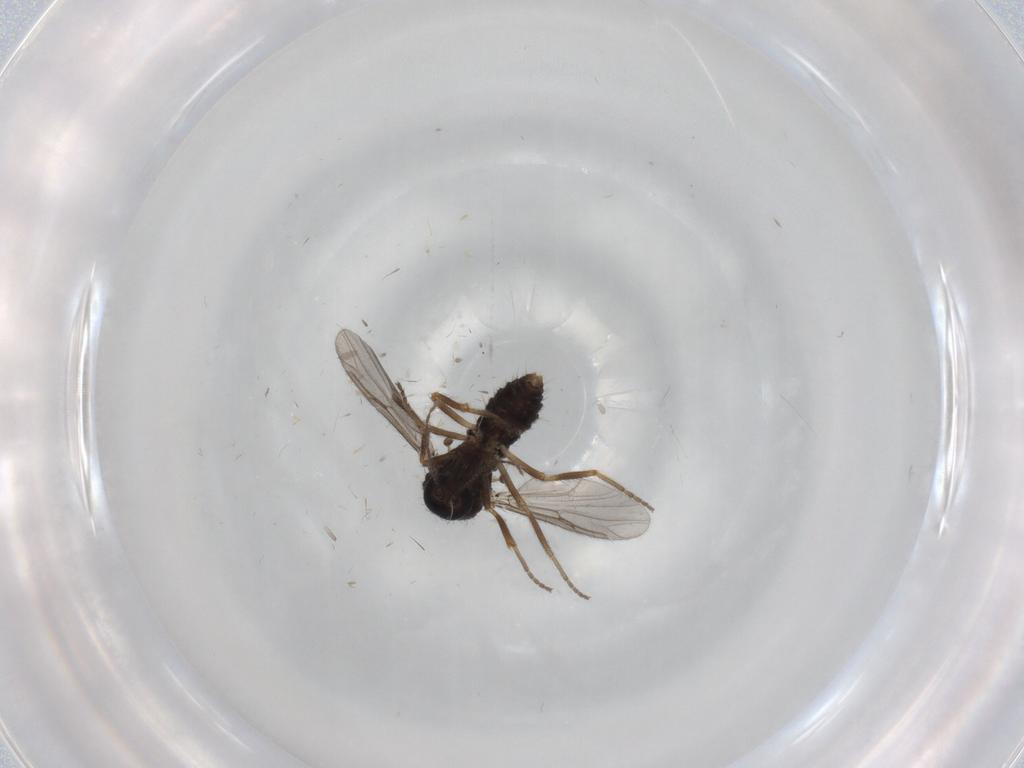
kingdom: Animalia
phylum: Arthropoda
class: Insecta
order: Diptera
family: Ceratopogonidae
